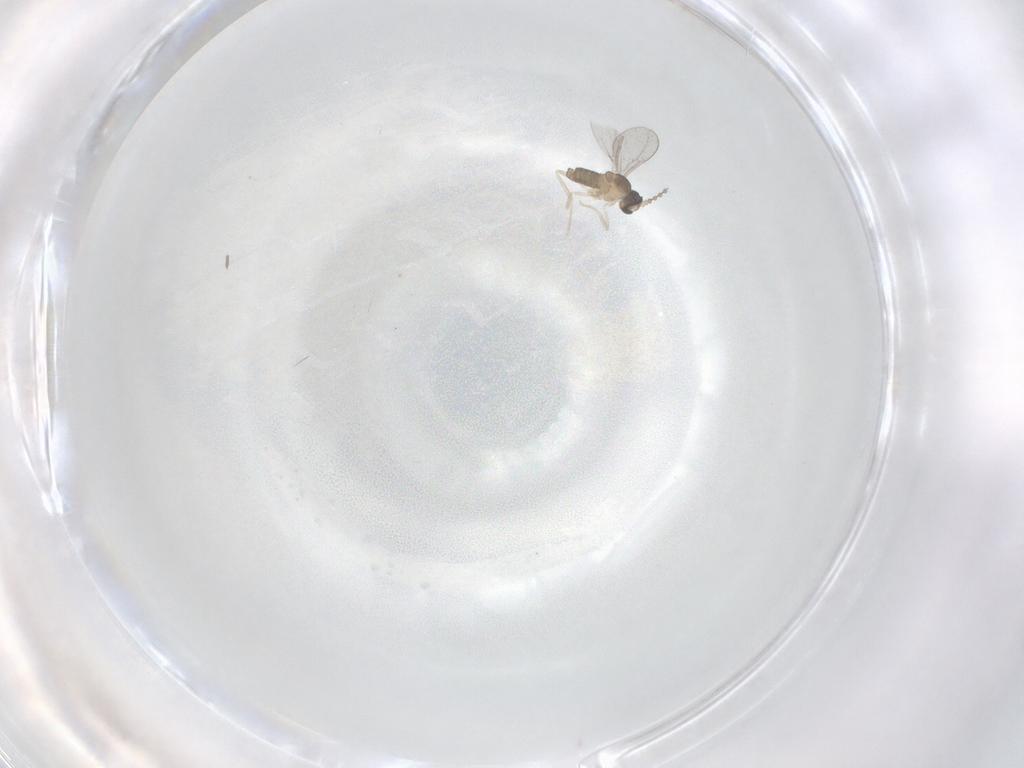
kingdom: Animalia
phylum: Arthropoda
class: Insecta
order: Diptera
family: Cecidomyiidae
